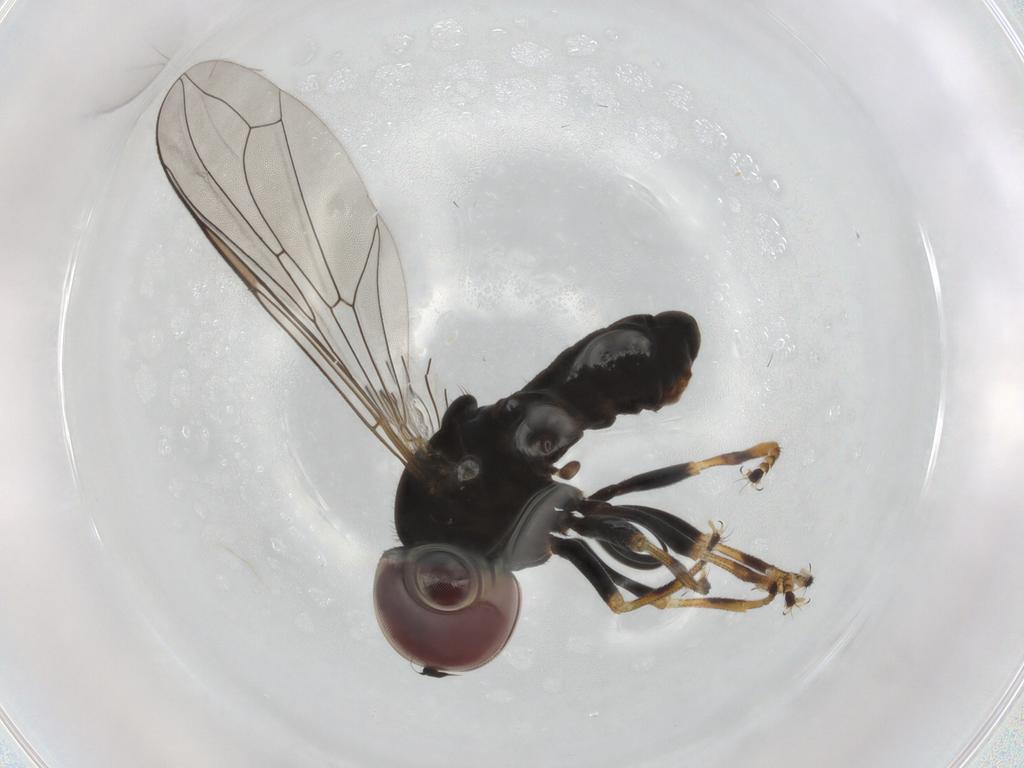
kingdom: Animalia
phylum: Arthropoda
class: Insecta
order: Diptera
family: Pipunculidae
